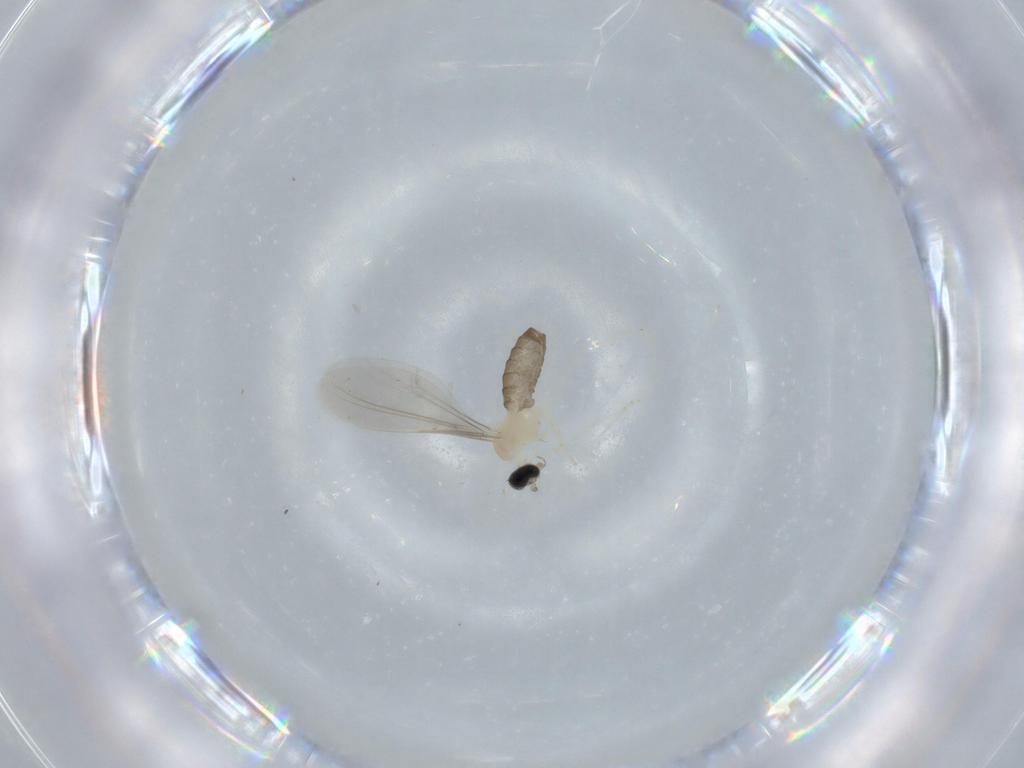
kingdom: Animalia
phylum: Arthropoda
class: Insecta
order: Diptera
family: Cecidomyiidae
